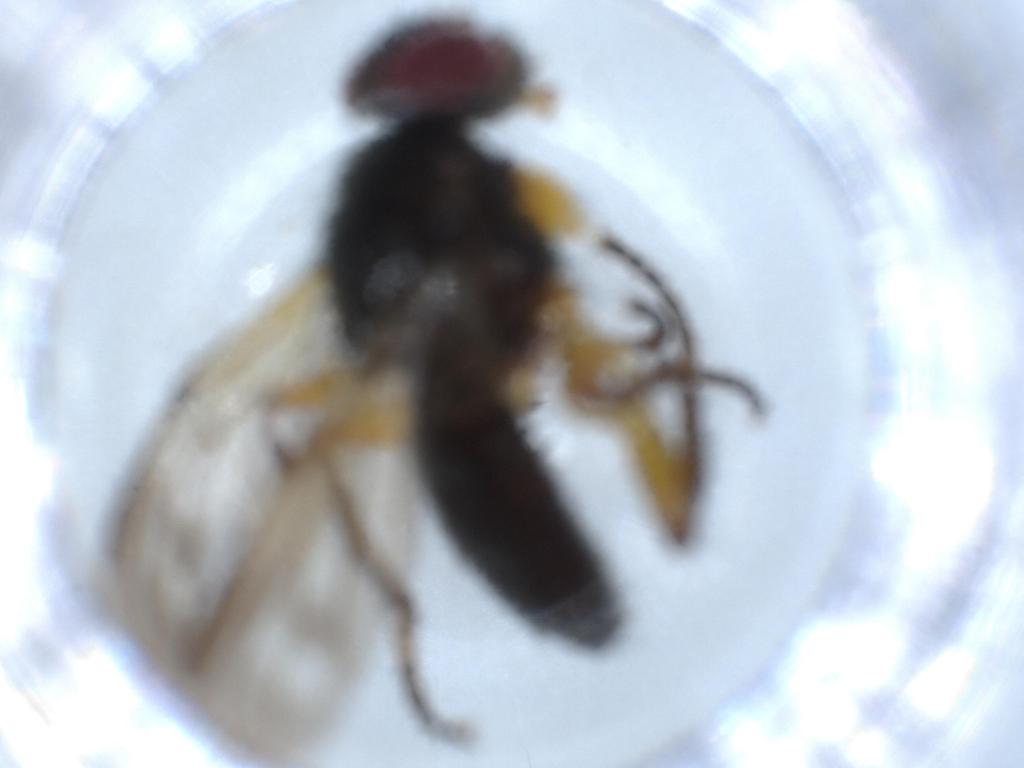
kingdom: Animalia
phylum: Arthropoda
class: Insecta
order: Diptera
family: Calliphoridae
